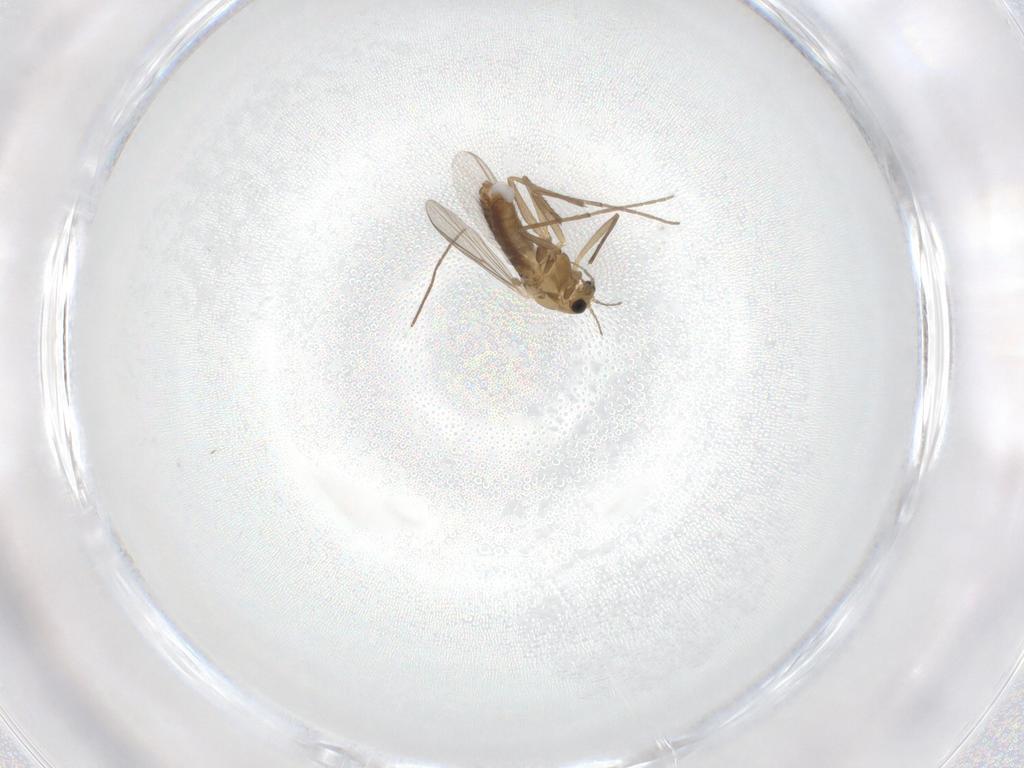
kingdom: Animalia
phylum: Arthropoda
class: Insecta
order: Diptera
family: Chironomidae
